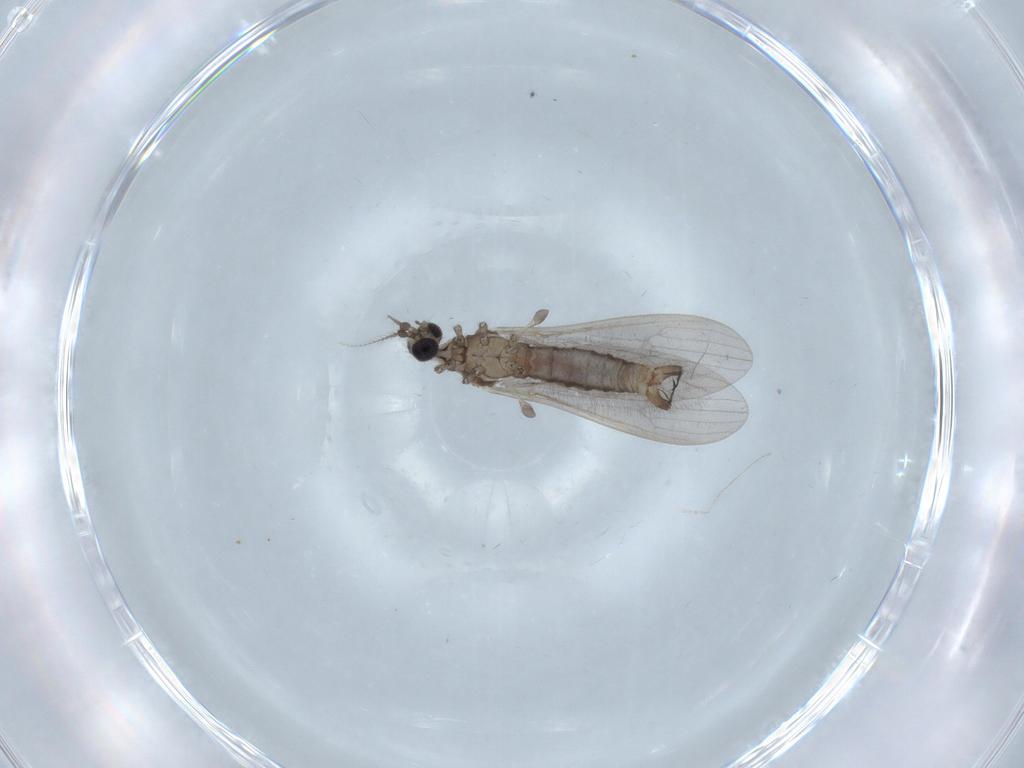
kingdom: Animalia
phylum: Arthropoda
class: Insecta
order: Diptera
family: Limoniidae
